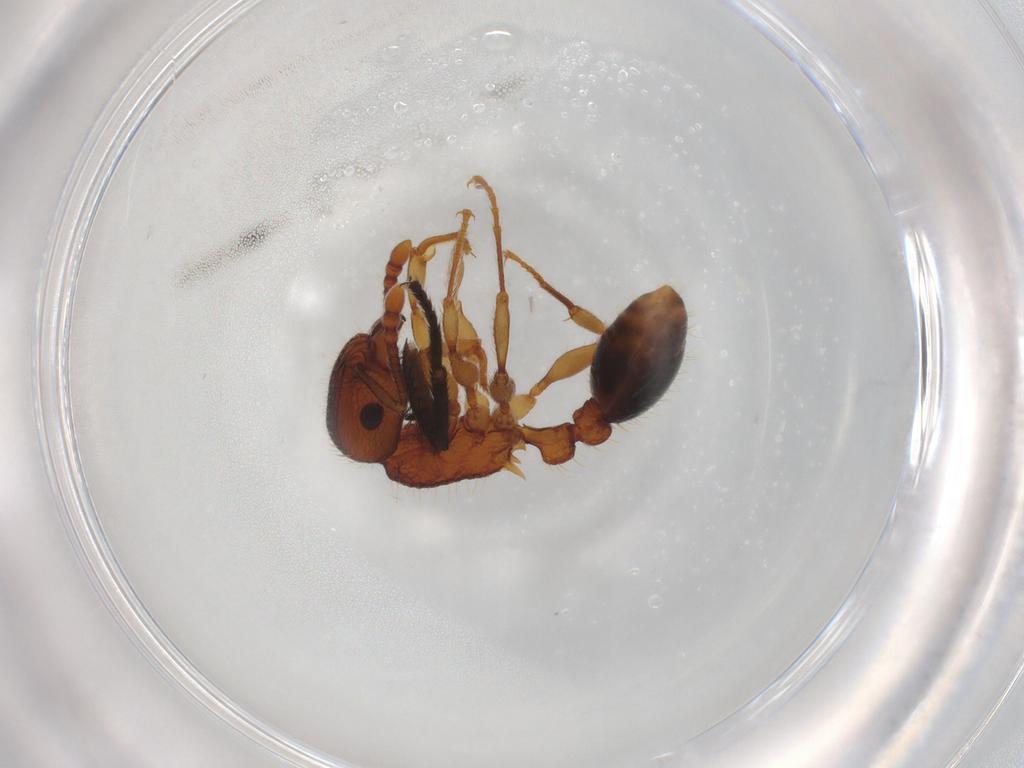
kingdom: Animalia
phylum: Arthropoda
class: Insecta
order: Hymenoptera
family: Formicidae
